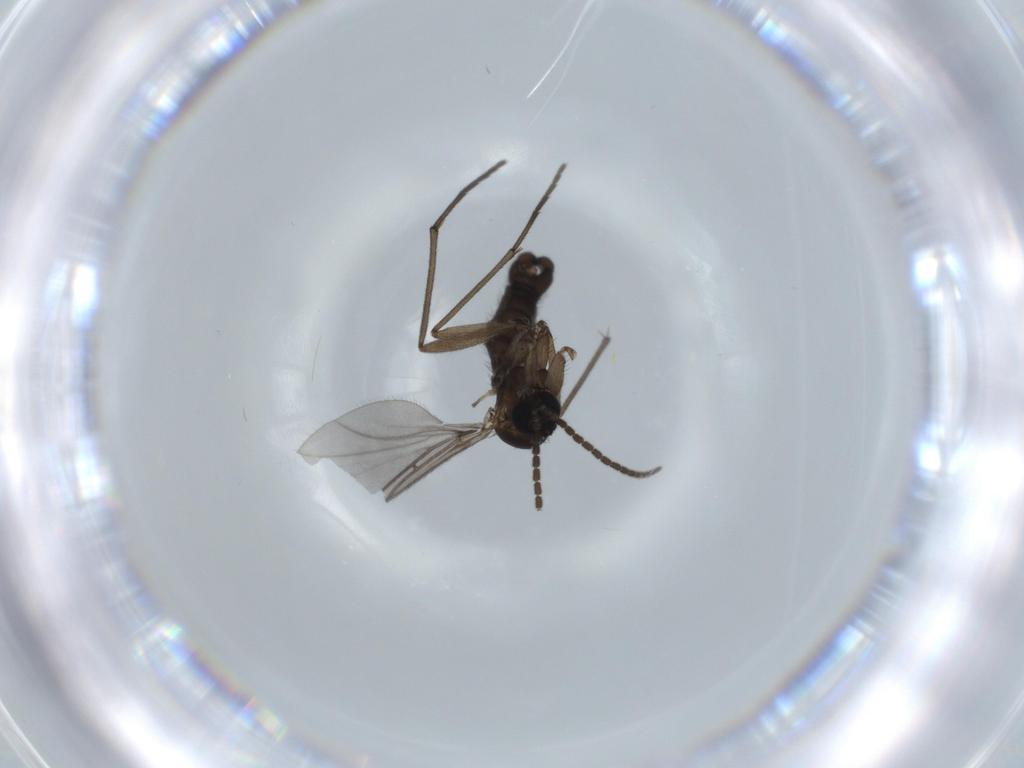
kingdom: Animalia
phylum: Arthropoda
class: Insecta
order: Diptera
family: Sciaridae
